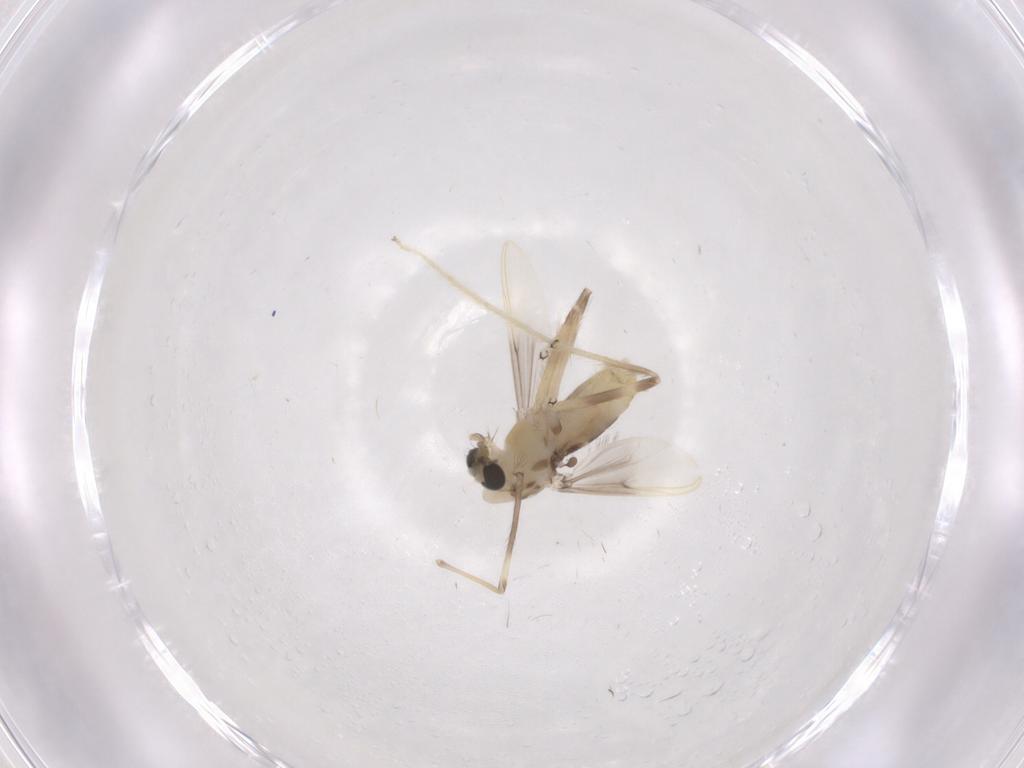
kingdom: Animalia
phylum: Arthropoda
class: Insecta
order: Diptera
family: Chironomidae
